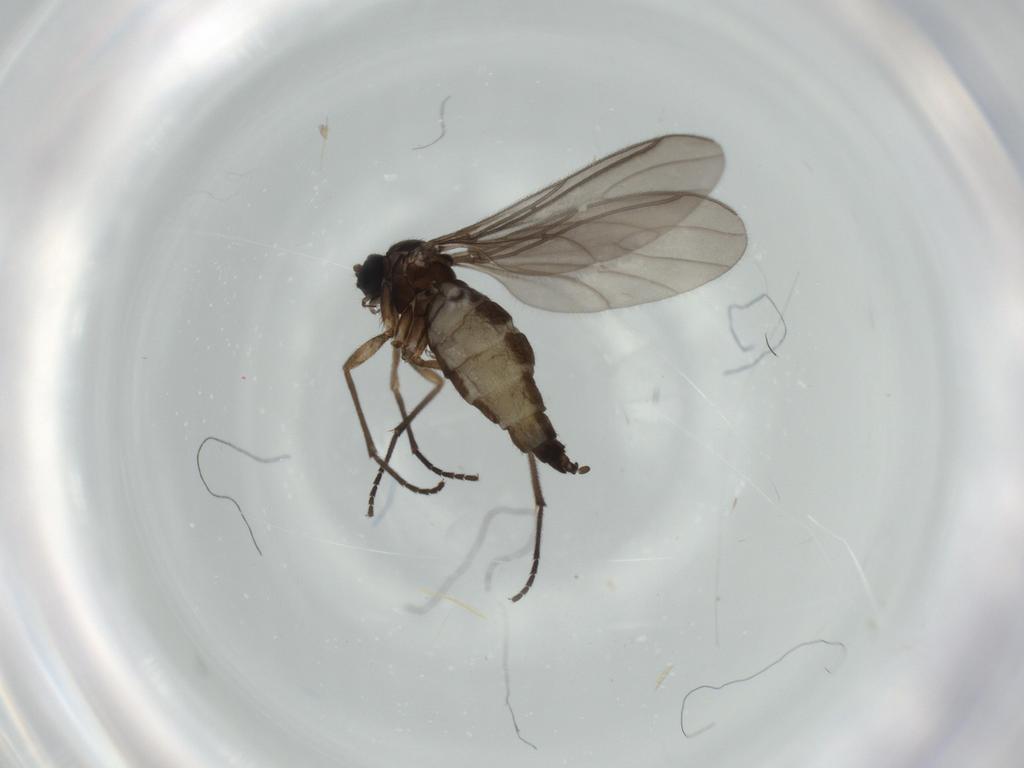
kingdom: Animalia
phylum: Arthropoda
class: Insecta
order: Diptera
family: Sciaridae
